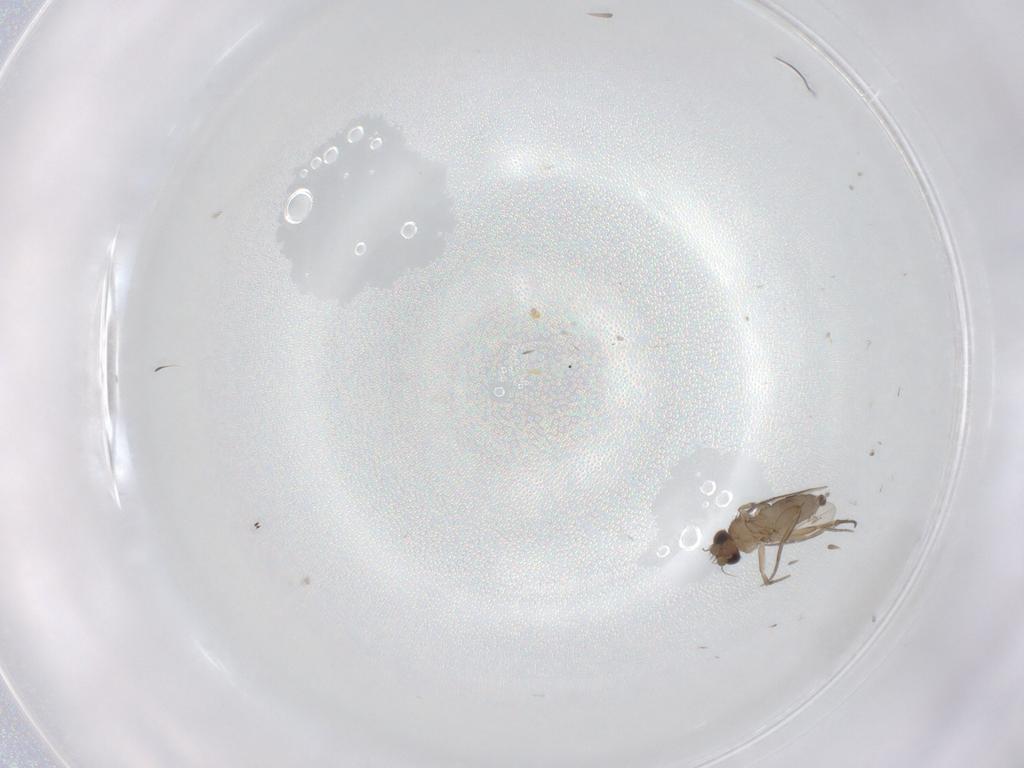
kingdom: Animalia
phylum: Arthropoda
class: Insecta
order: Diptera
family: Phoridae
